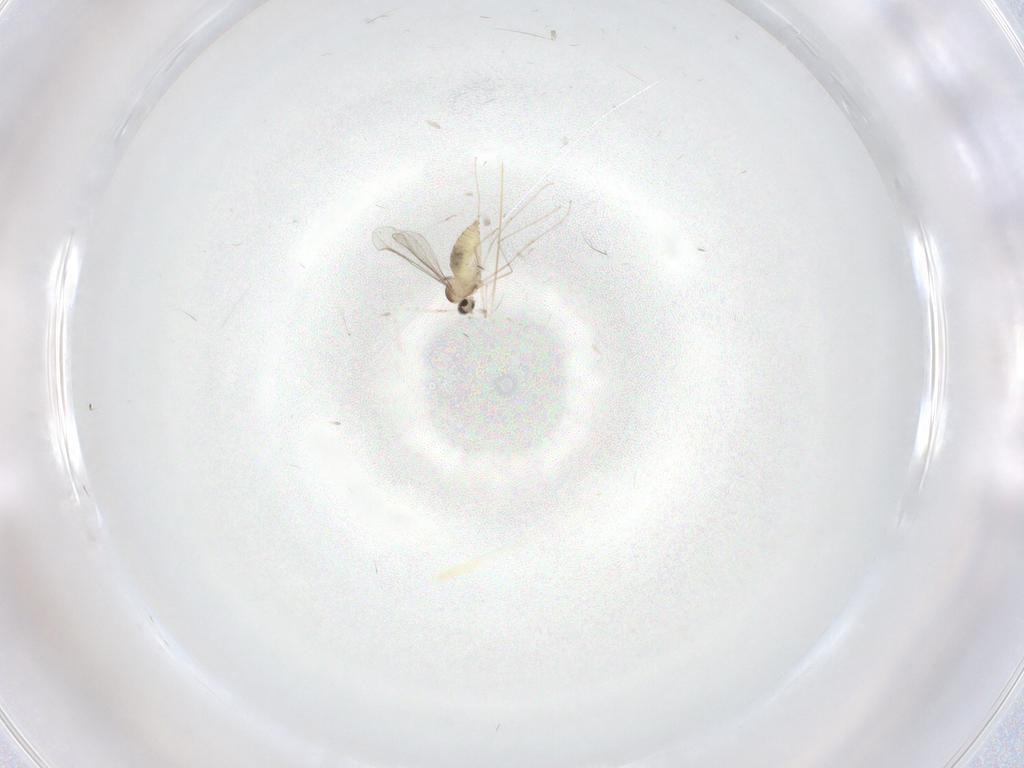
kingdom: Animalia
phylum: Arthropoda
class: Insecta
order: Diptera
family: Cecidomyiidae
